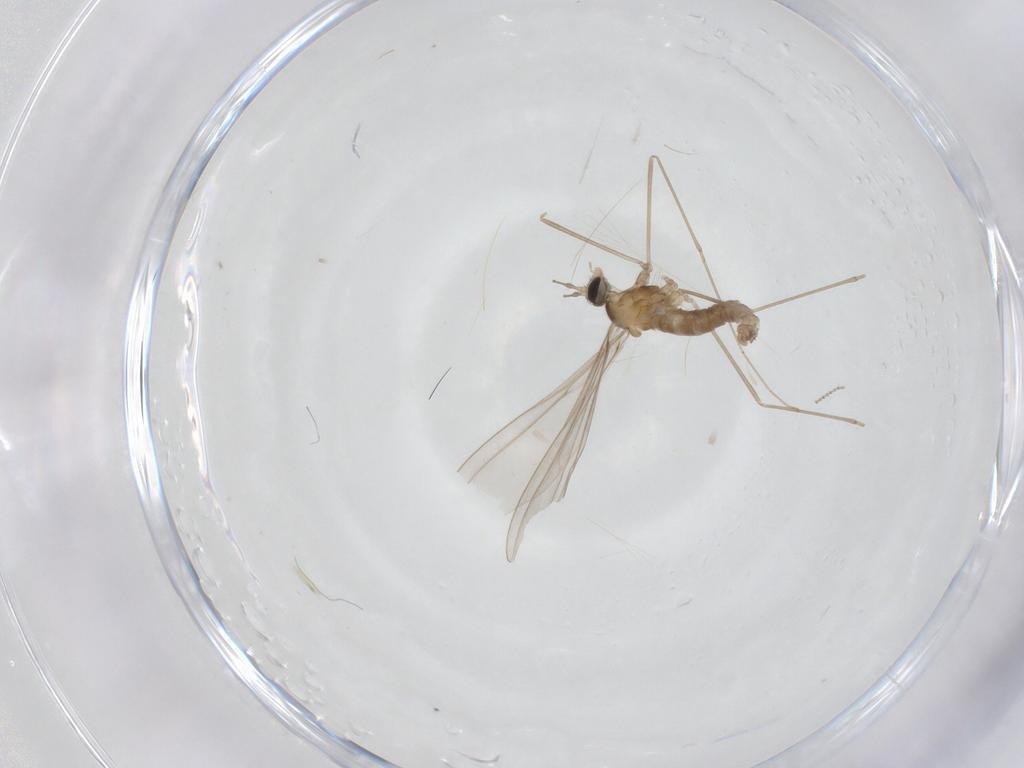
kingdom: Animalia
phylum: Arthropoda
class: Insecta
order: Diptera
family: Cecidomyiidae
